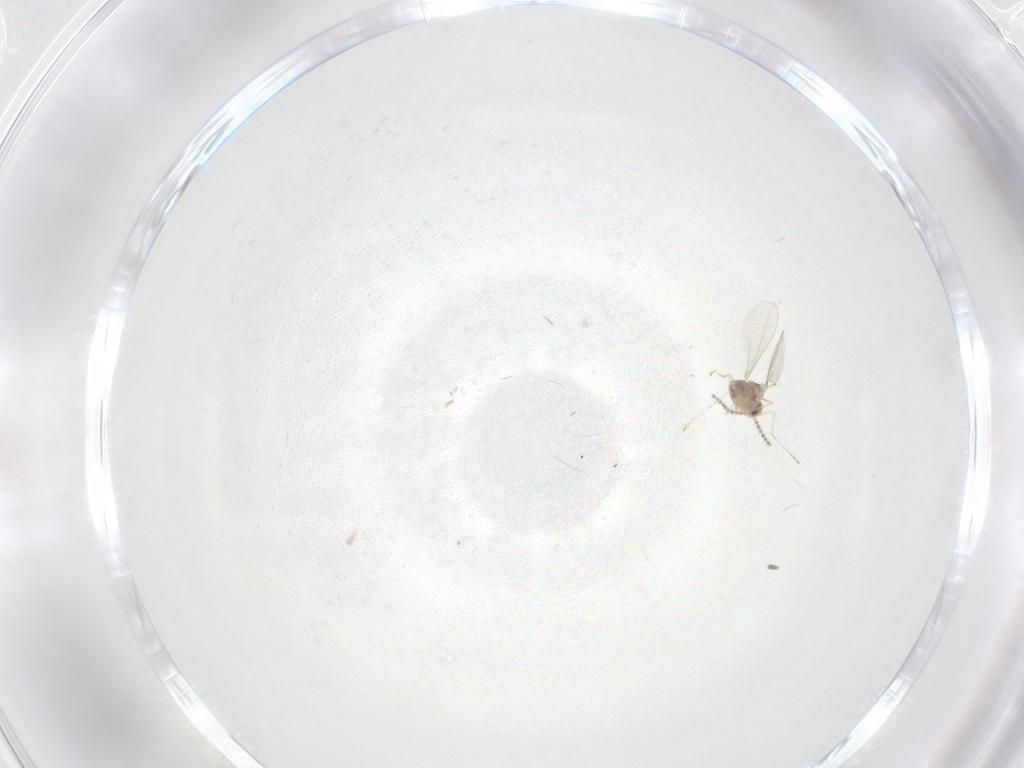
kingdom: Animalia
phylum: Arthropoda
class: Insecta
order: Diptera
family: Cecidomyiidae
